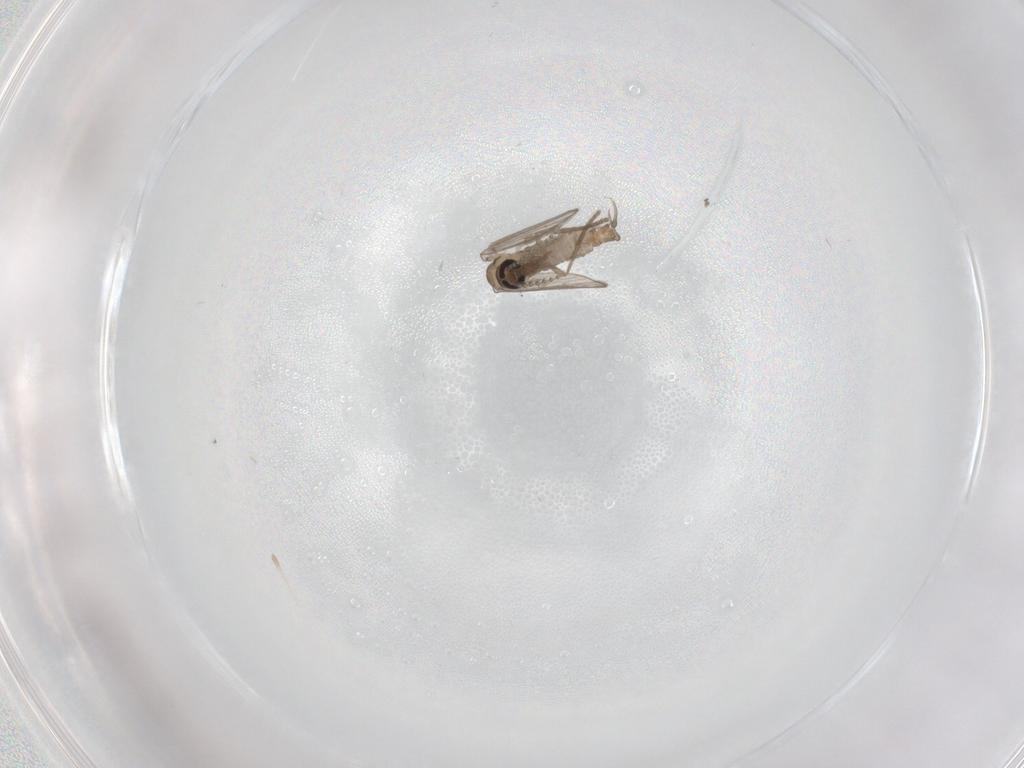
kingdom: Animalia
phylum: Arthropoda
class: Insecta
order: Diptera
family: Psychodidae
